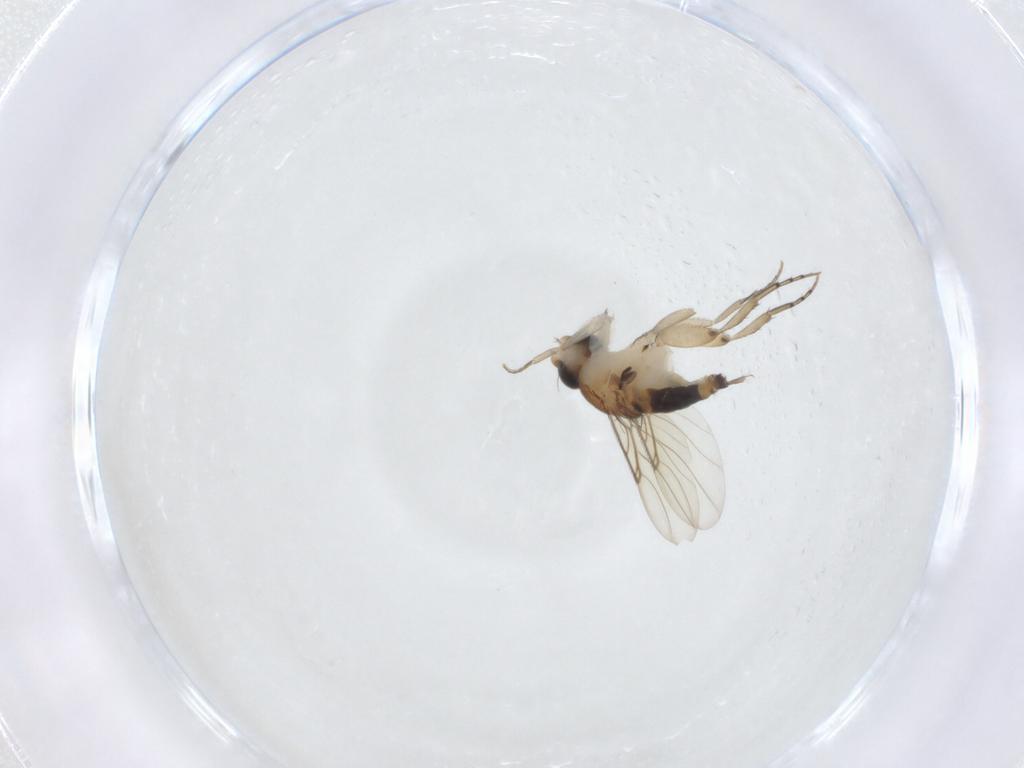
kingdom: Animalia
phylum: Arthropoda
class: Insecta
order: Diptera
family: Phoridae
